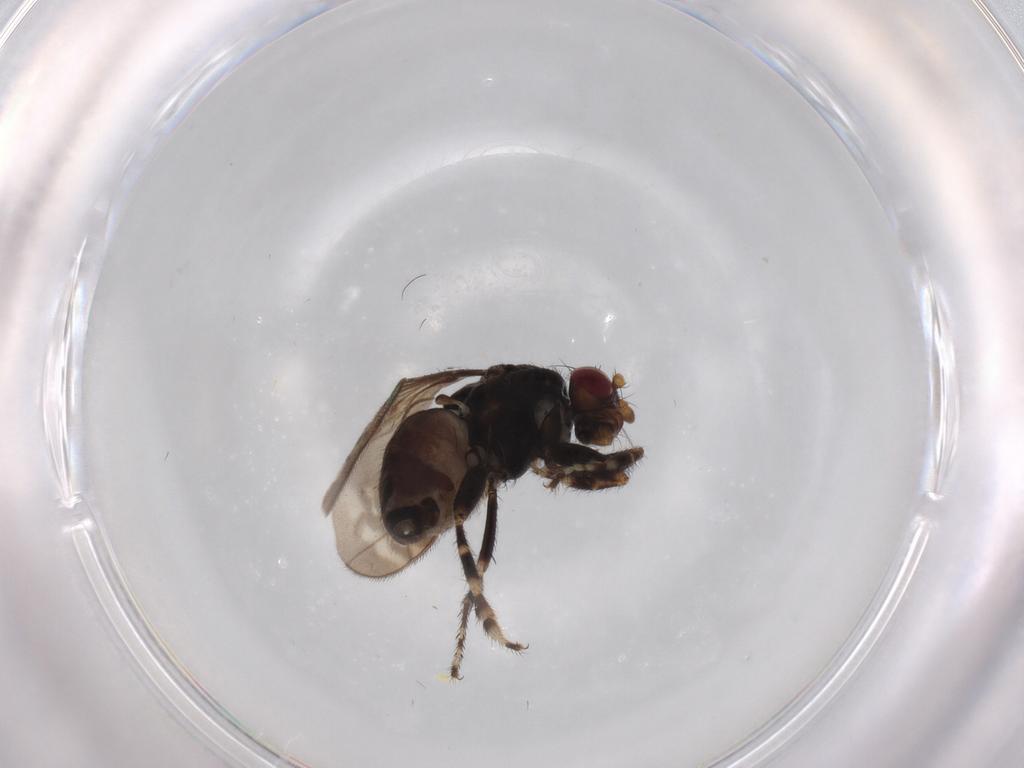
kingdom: Animalia
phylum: Arthropoda
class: Insecta
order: Diptera
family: Sphaeroceridae
